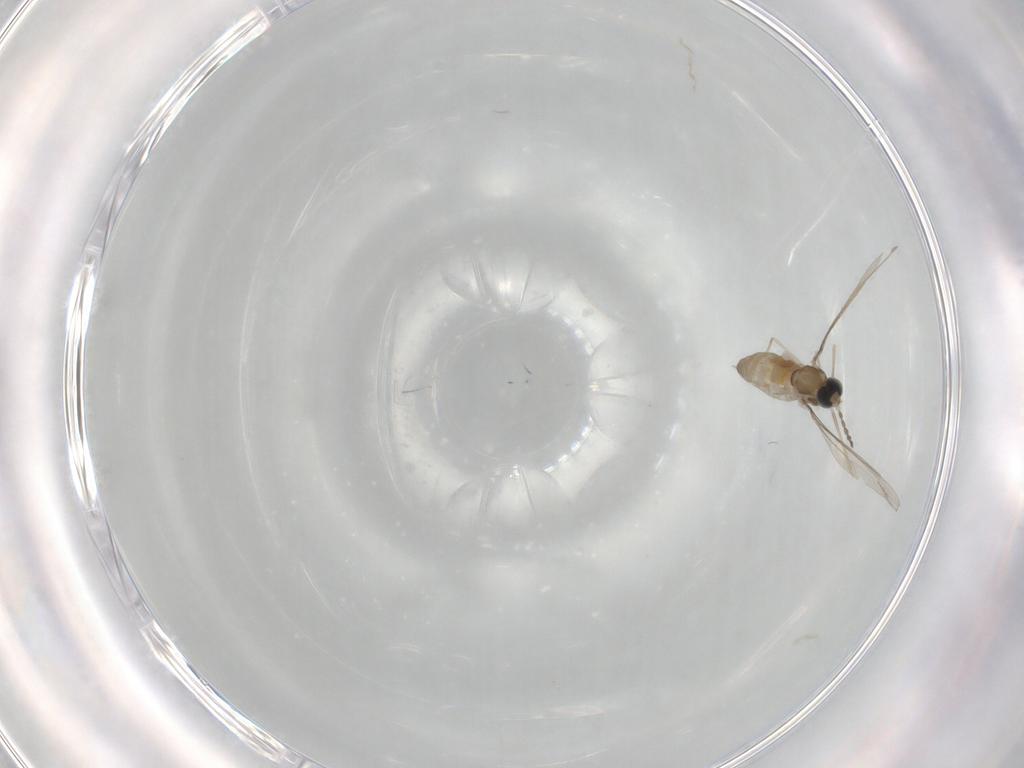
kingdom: Animalia
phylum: Arthropoda
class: Insecta
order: Diptera
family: Cecidomyiidae
